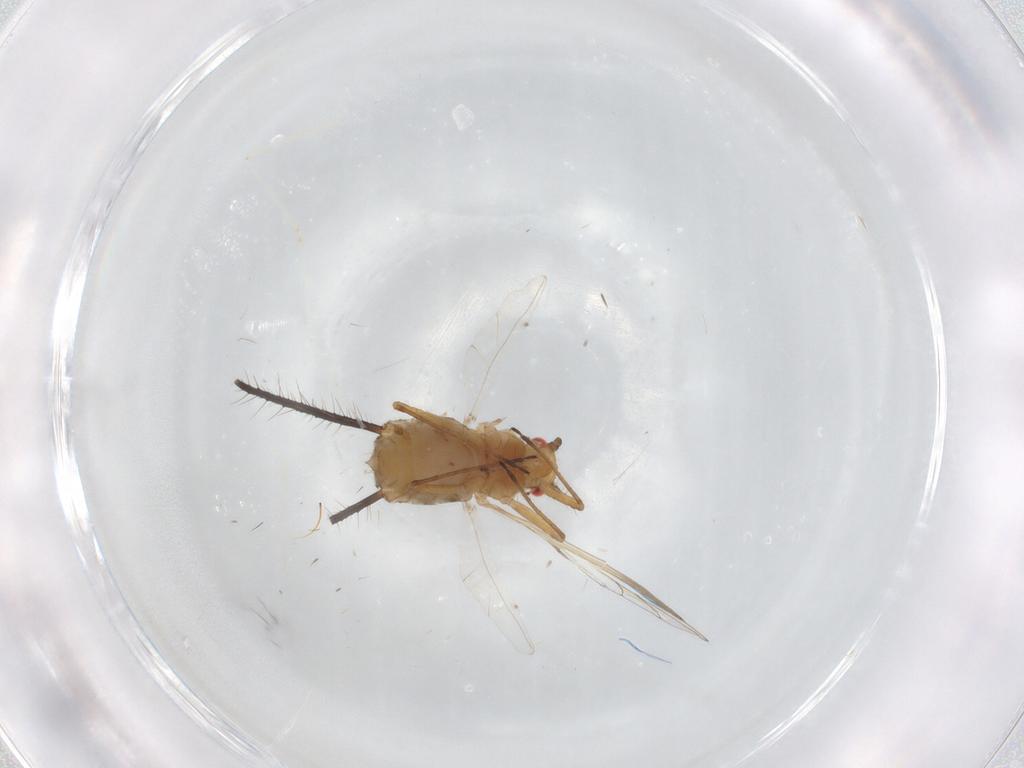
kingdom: Animalia
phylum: Arthropoda
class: Insecta
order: Hemiptera
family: Aphididae
